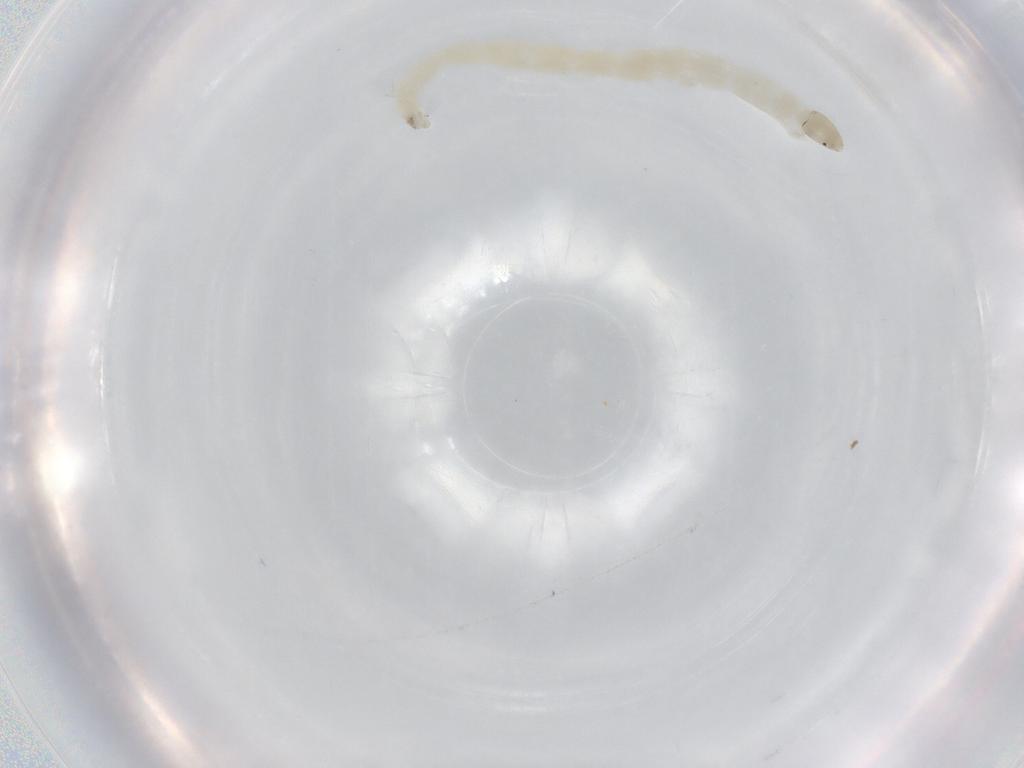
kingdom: Animalia
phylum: Arthropoda
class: Insecta
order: Diptera
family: Chironomidae
